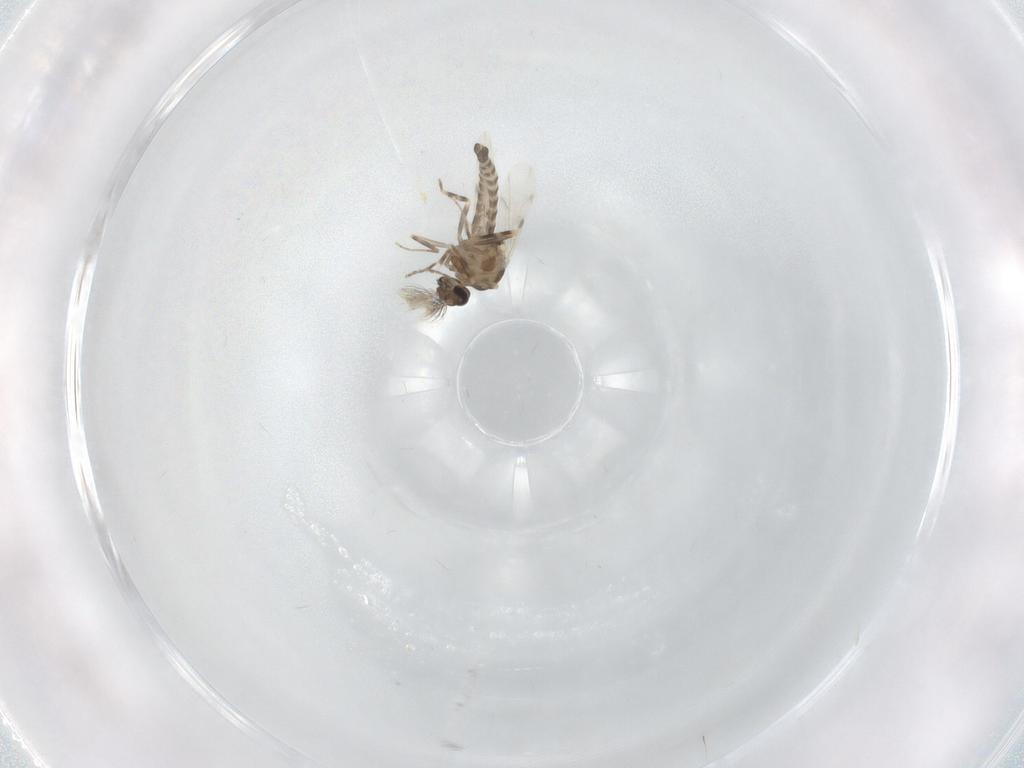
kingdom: Animalia
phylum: Arthropoda
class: Insecta
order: Diptera
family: Ceratopogonidae
